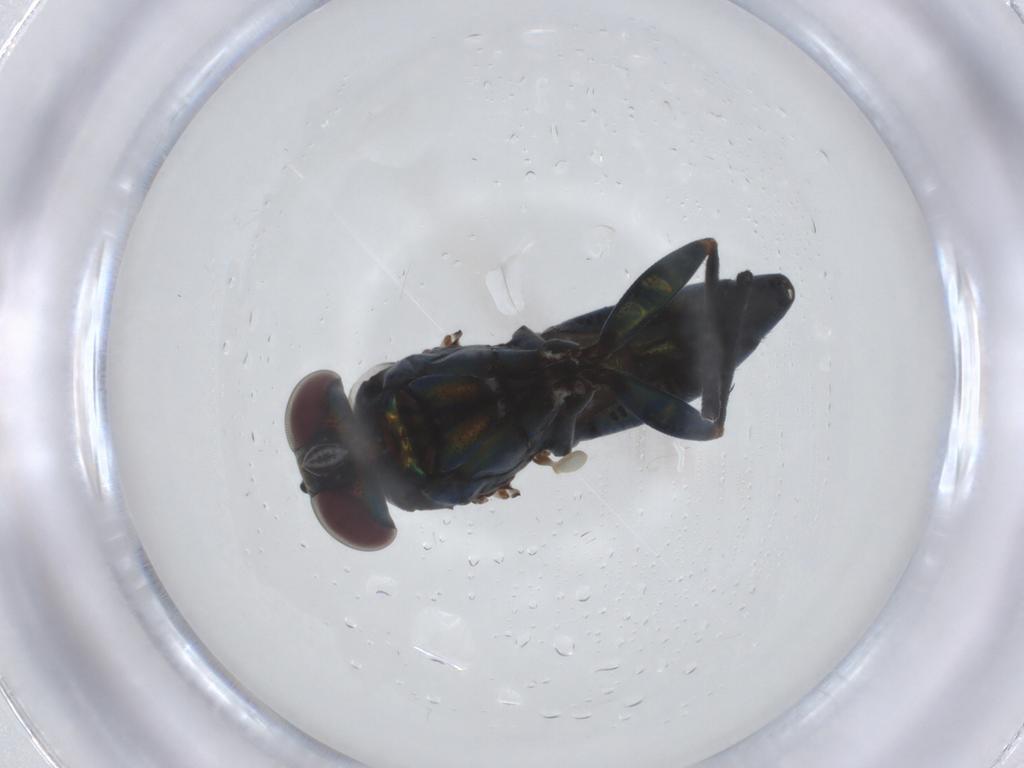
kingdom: Animalia
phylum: Arthropoda
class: Insecta
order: Diptera
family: Dolichopodidae
